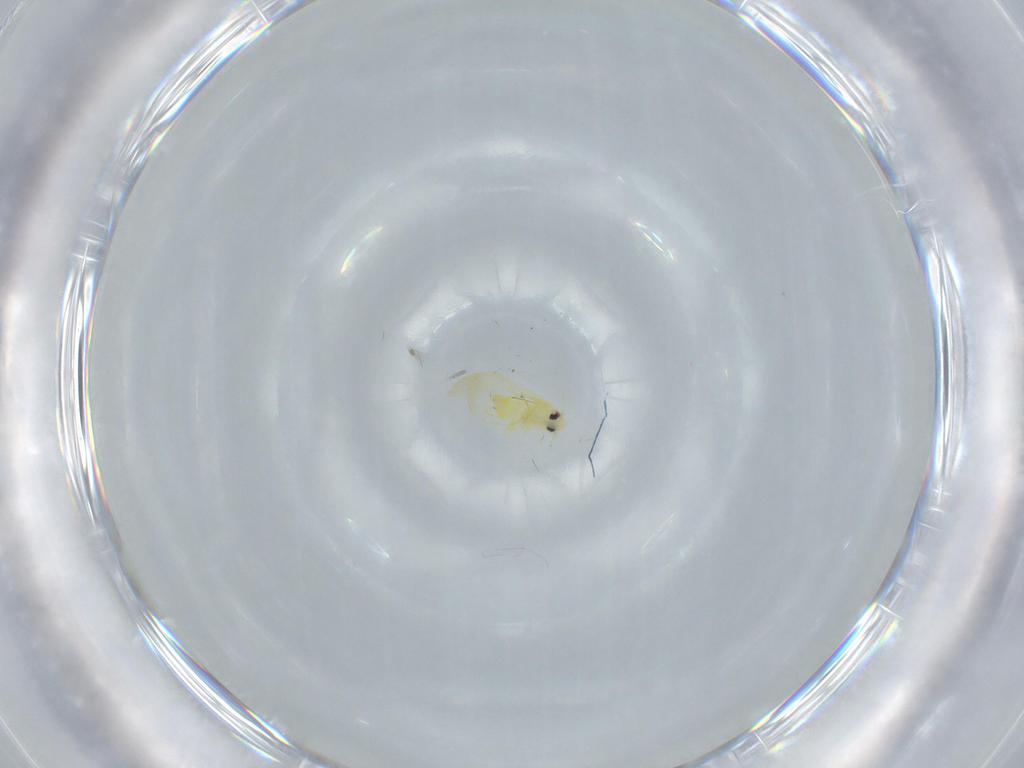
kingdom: Animalia
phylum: Arthropoda
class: Insecta
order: Hemiptera
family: Aleyrodidae
